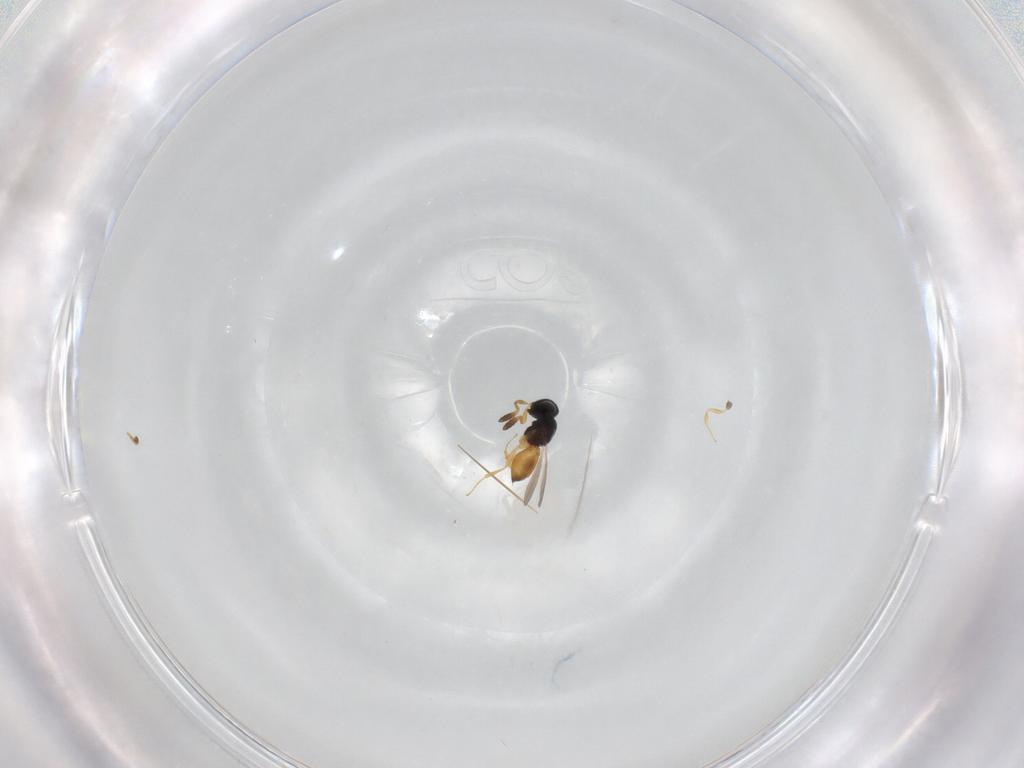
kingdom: Animalia
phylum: Arthropoda
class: Insecta
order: Hymenoptera
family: Scelionidae
